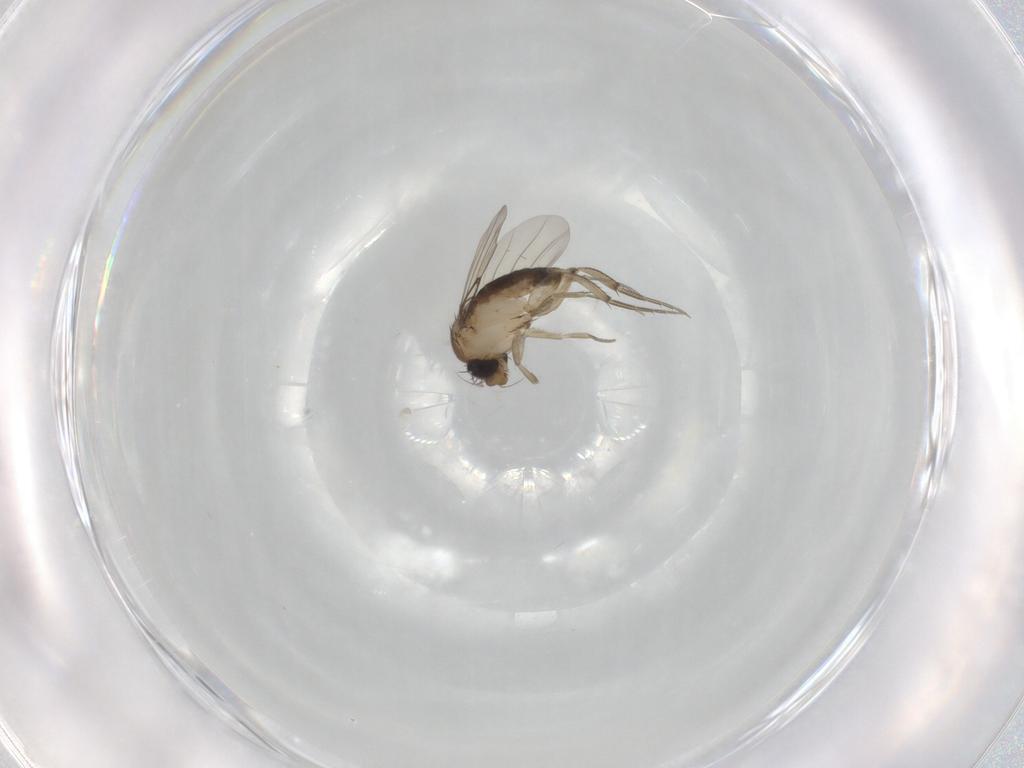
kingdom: Animalia
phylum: Arthropoda
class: Insecta
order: Diptera
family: Phoridae
